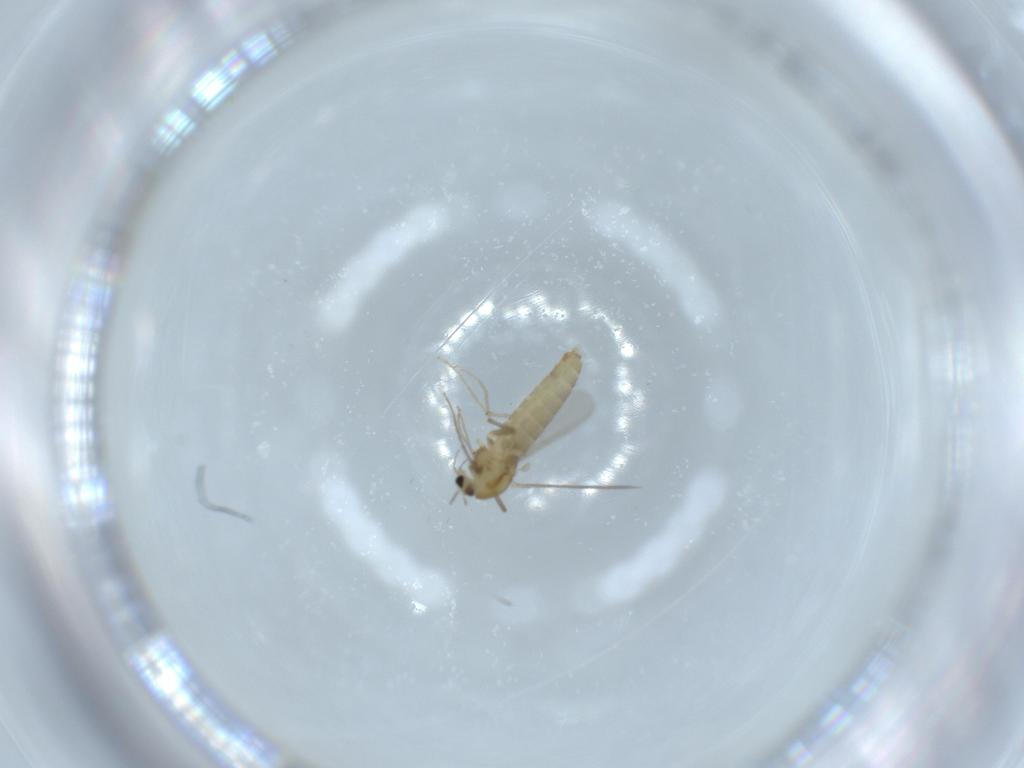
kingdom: Animalia
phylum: Arthropoda
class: Insecta
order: Diptera
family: Chironomidae
